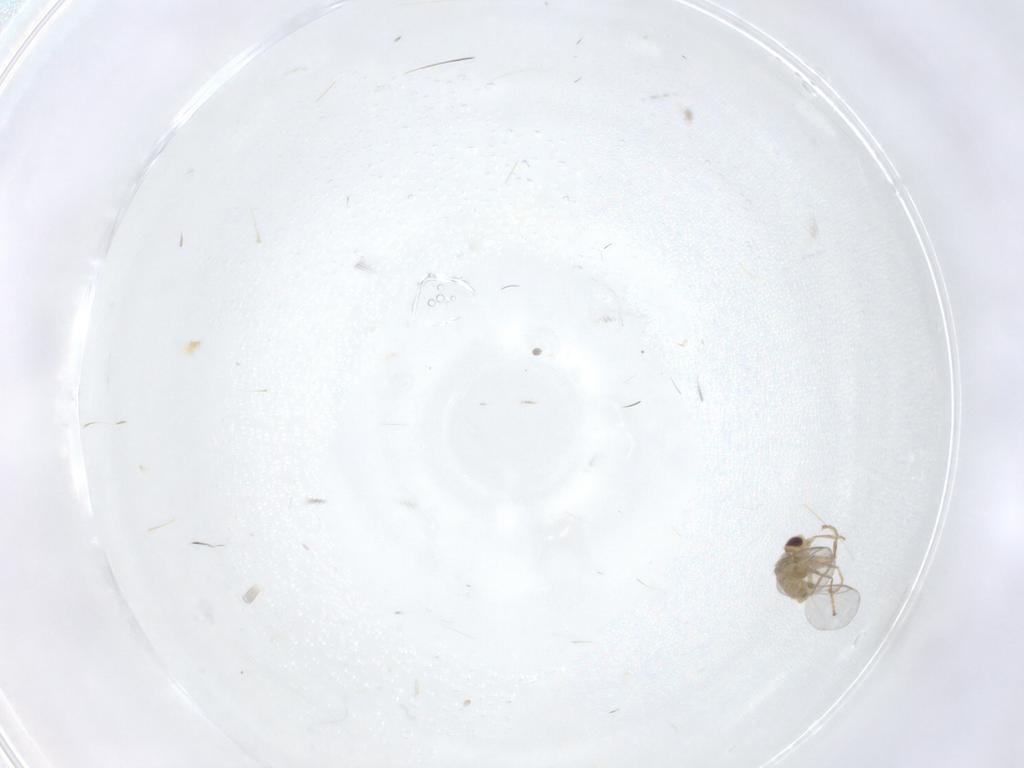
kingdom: Animalia
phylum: Arthropoda
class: Insecta
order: Diptera
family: Agromyzidae
